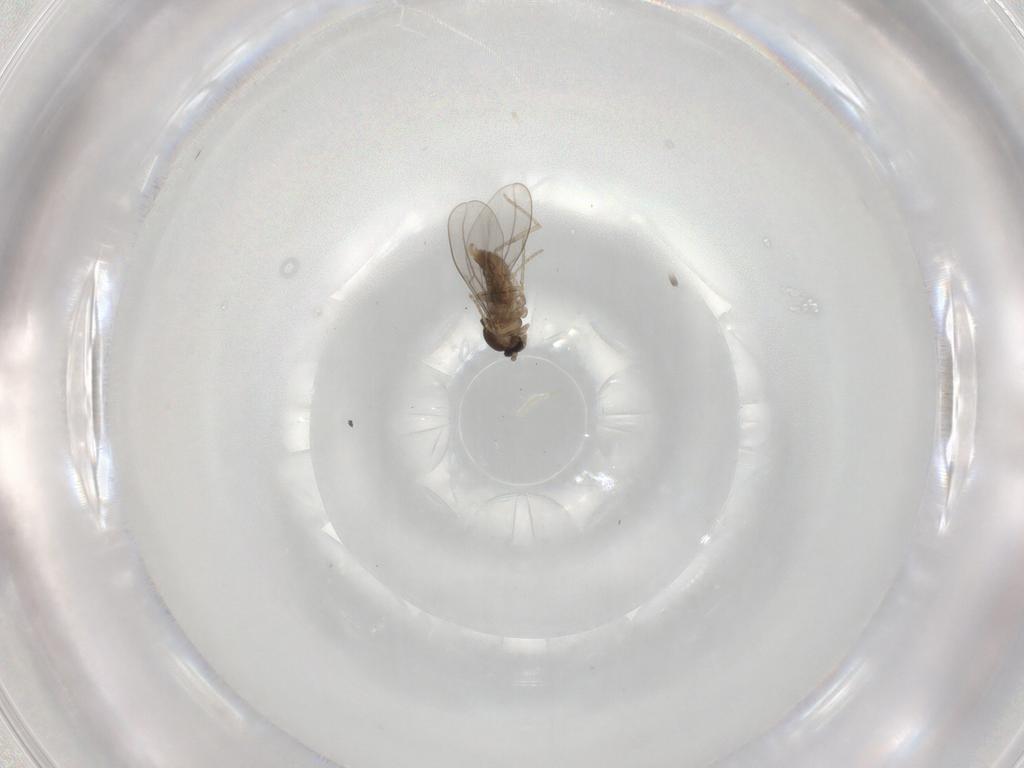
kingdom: Animalia
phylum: Arthropoda
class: Insecta
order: Diptera
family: Cecidomyiidae
